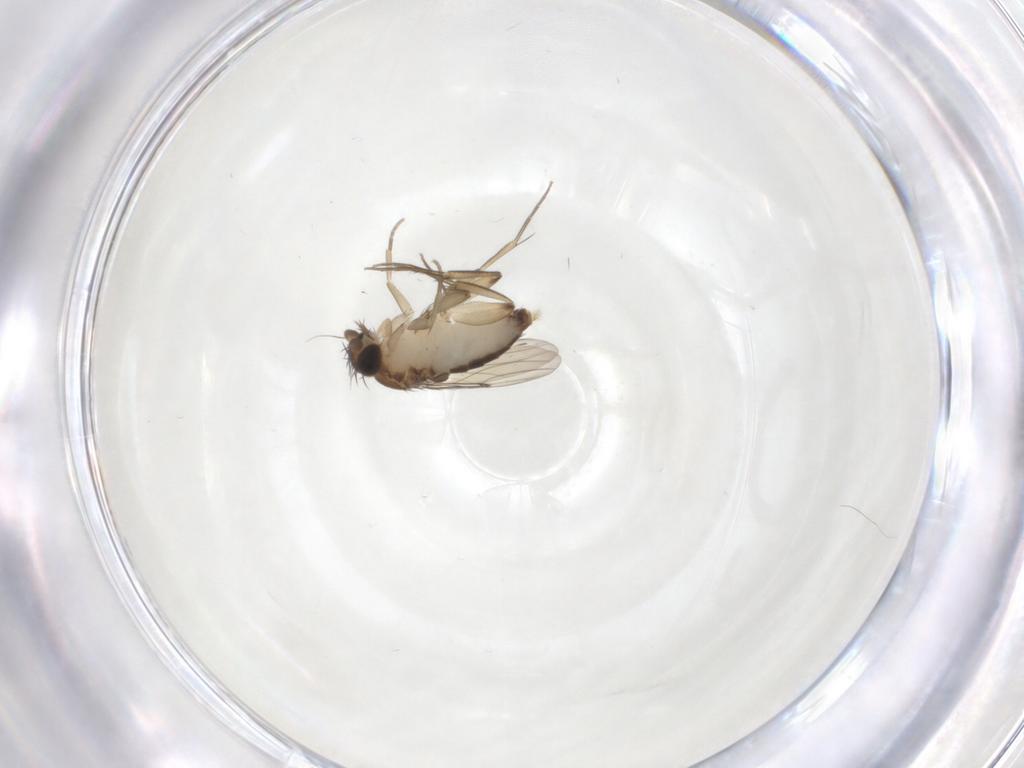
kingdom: Animalia
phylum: Arthropoda
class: Insecta
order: Diptera
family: Phoridae
